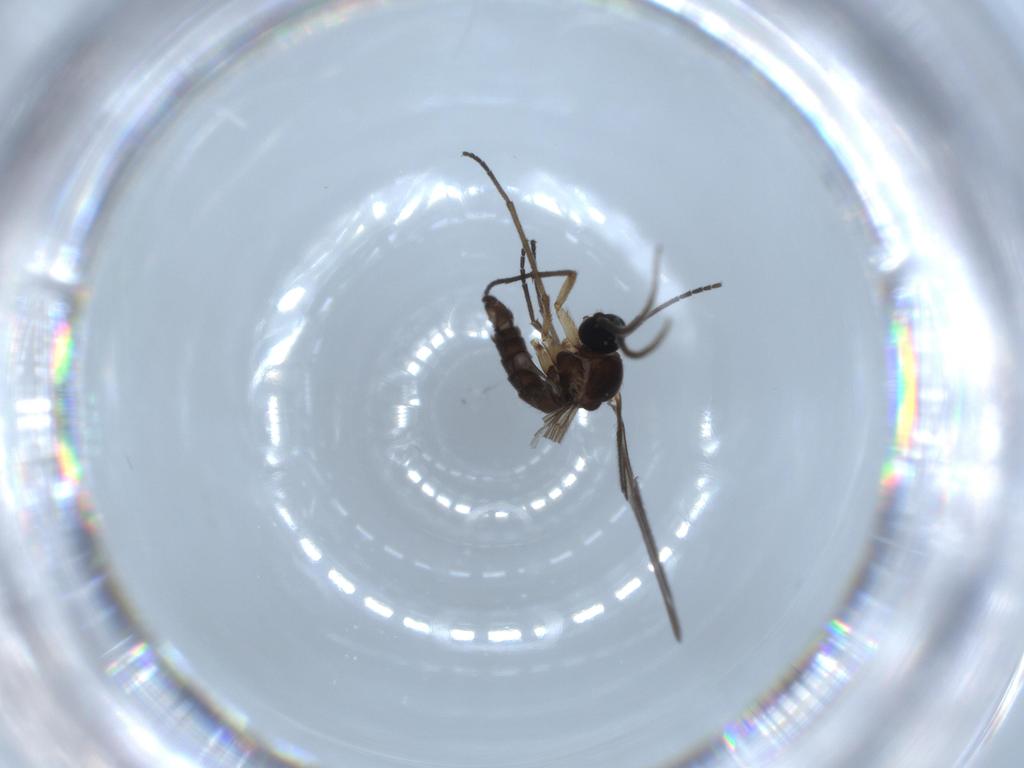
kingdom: Animalia
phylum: Arthropoda
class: Insecta
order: Diptera
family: Sciaridae
